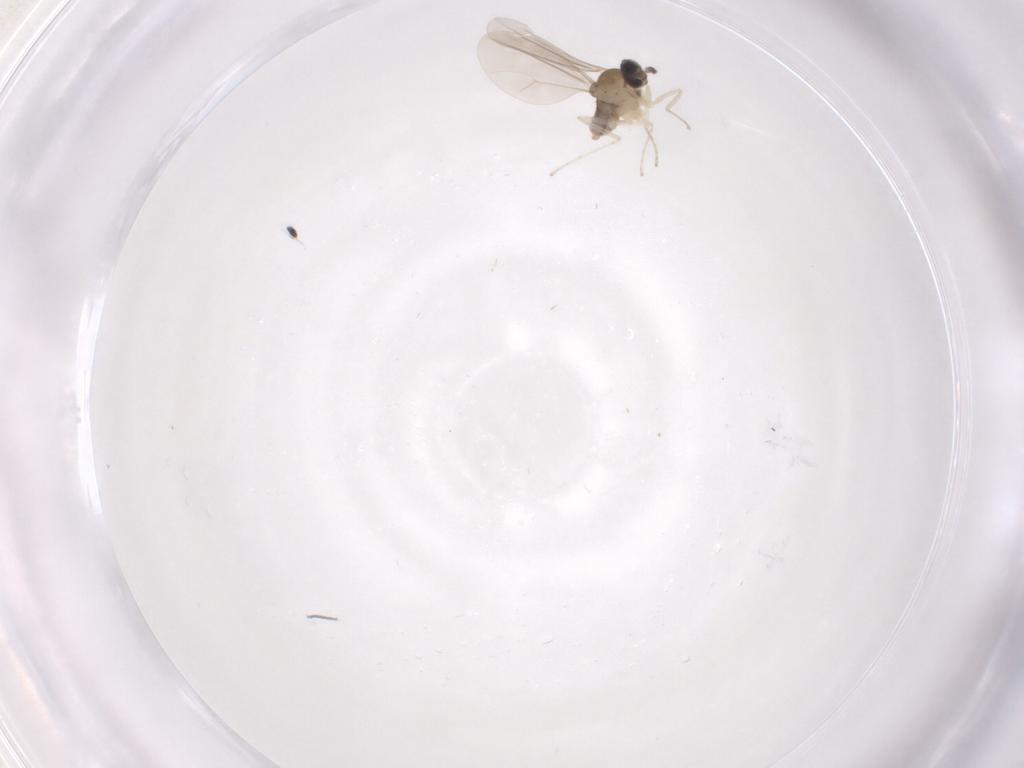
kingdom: Animalia
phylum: Arthropoda
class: Insecta
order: Diptera
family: Cecidomyiidae
